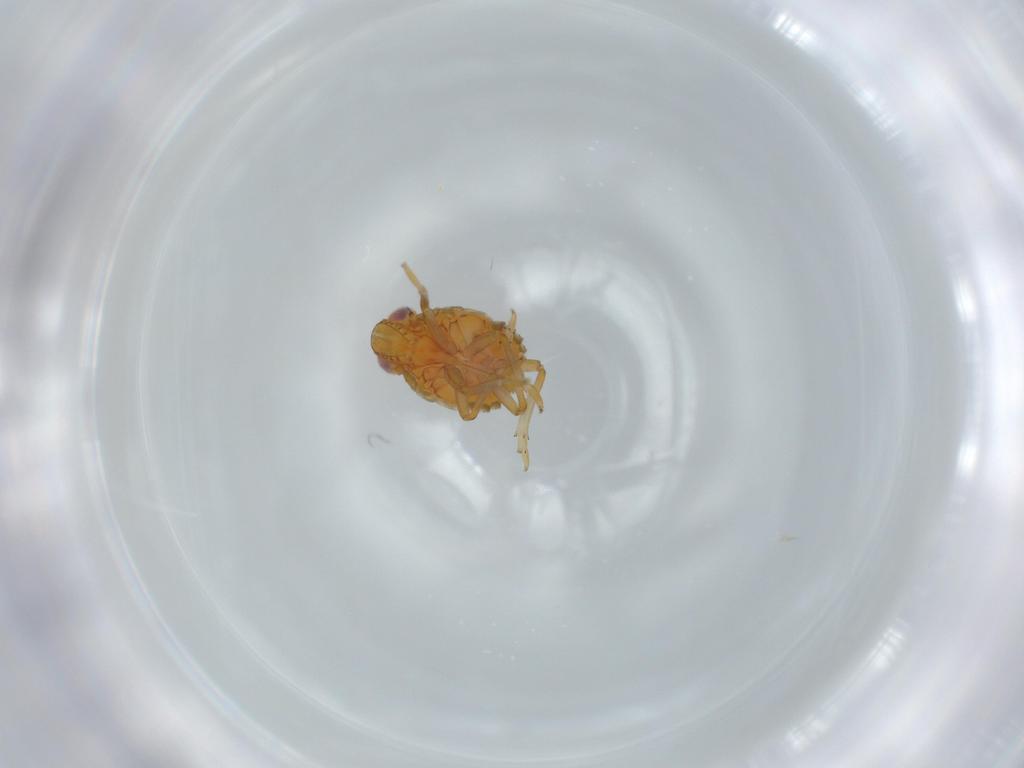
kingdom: Animalia
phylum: Arthropoda
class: Insecta
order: Hemiptera
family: Issidae
